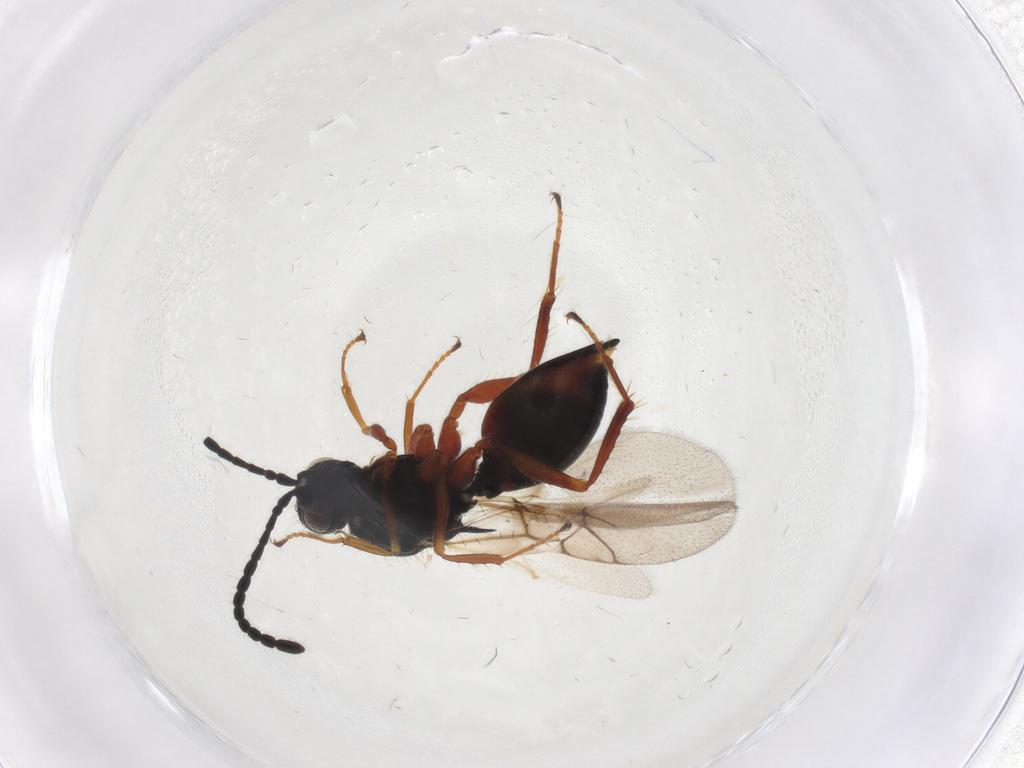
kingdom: Animalia
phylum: Arthropoda
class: Insecta
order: Hymenoptera
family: Figitidae
